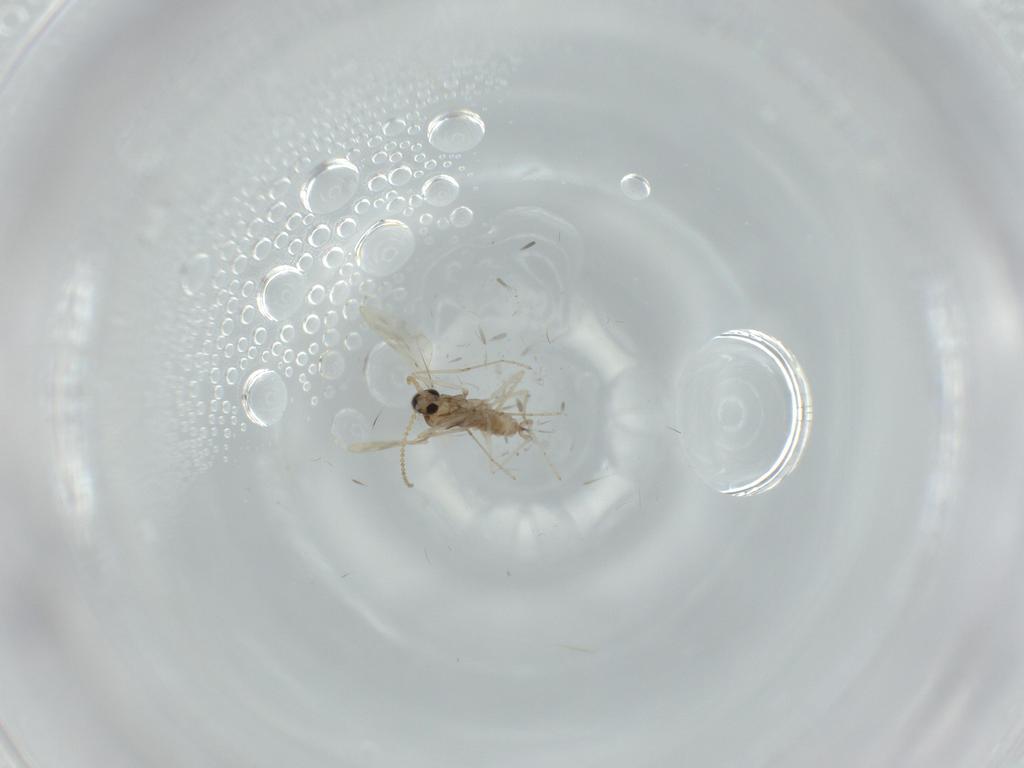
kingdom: Animalia
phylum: Arthropoda
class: Insecta
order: Diptera
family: Cecidomyiidae
